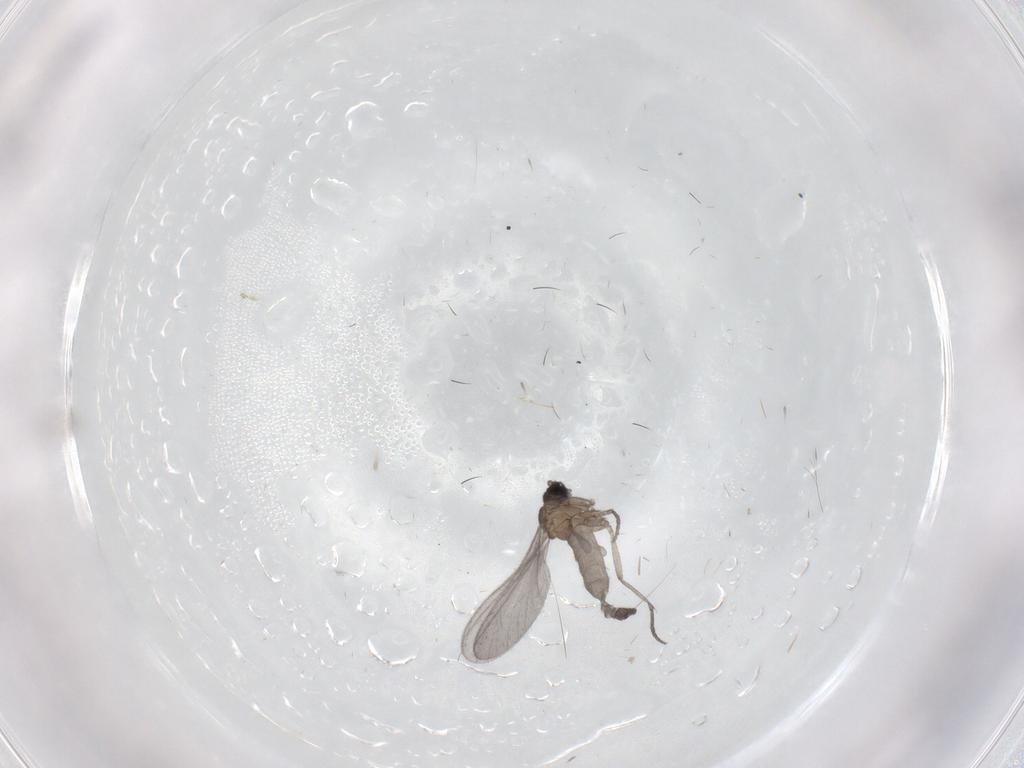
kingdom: Animalia
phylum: Arthropoda
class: Insecta
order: Diptera
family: Sciaridae
